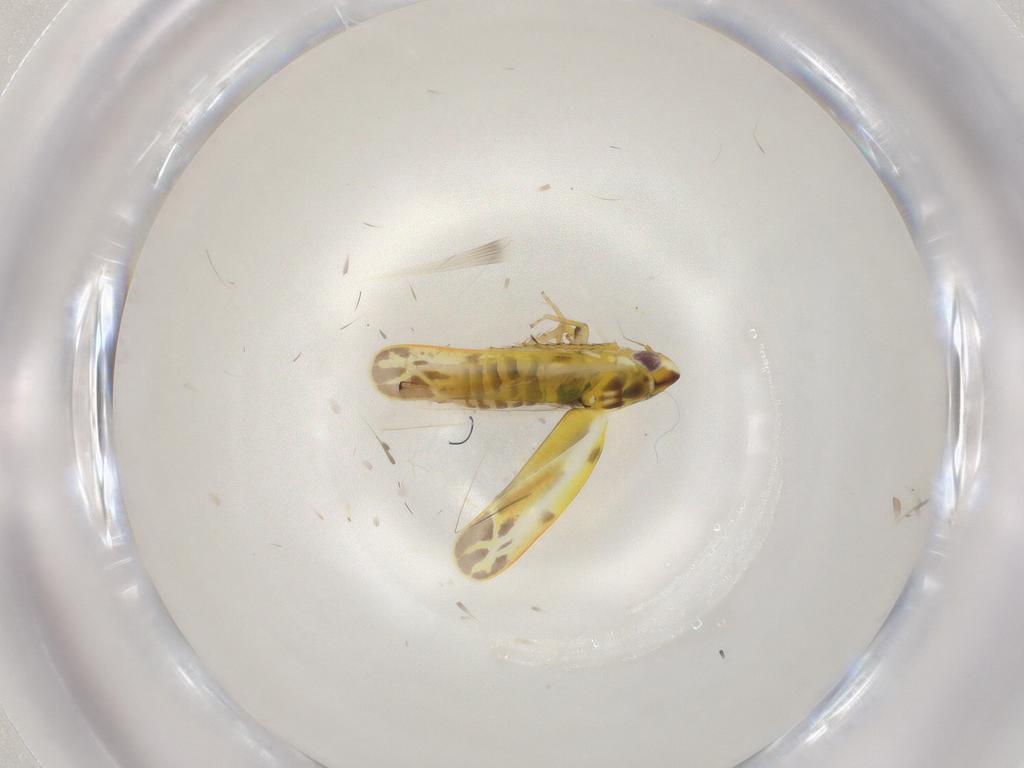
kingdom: Animalia
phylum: Arthropoda
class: Insecta
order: Hemiptera
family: Cicadellidae
